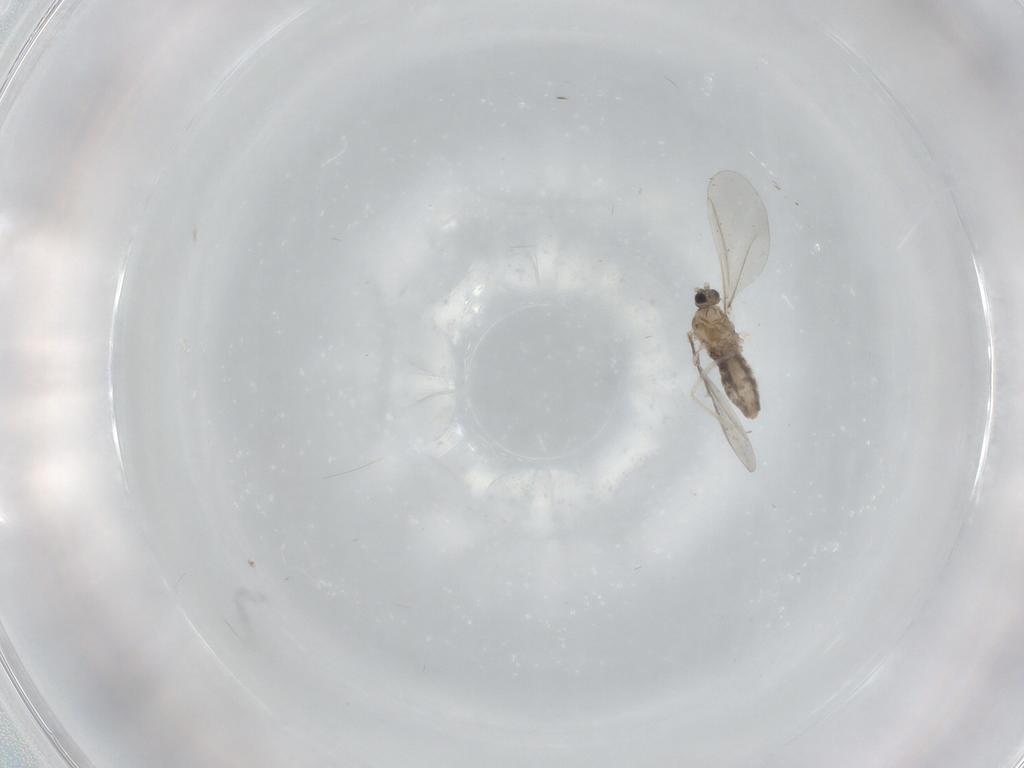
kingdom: Animalia
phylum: Arthropoda
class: Insecta
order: Diptera
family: Cecidomyiidae
